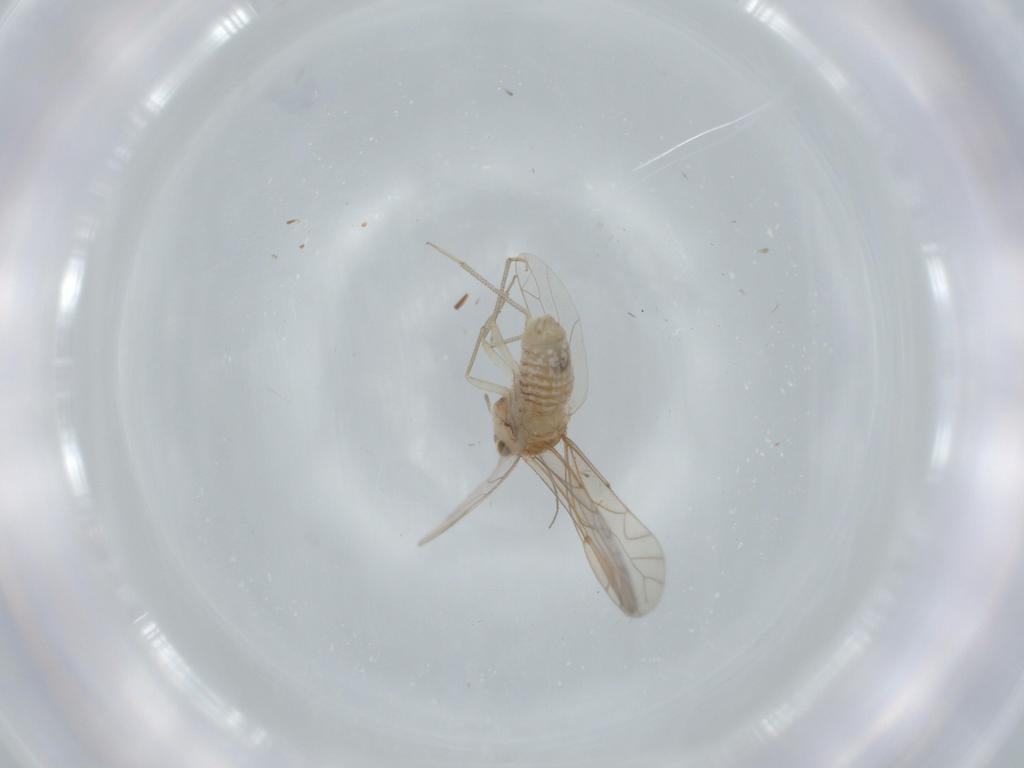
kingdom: Animalia
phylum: Arthropoda
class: Insecta
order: Psocodea
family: Lachesillidae
